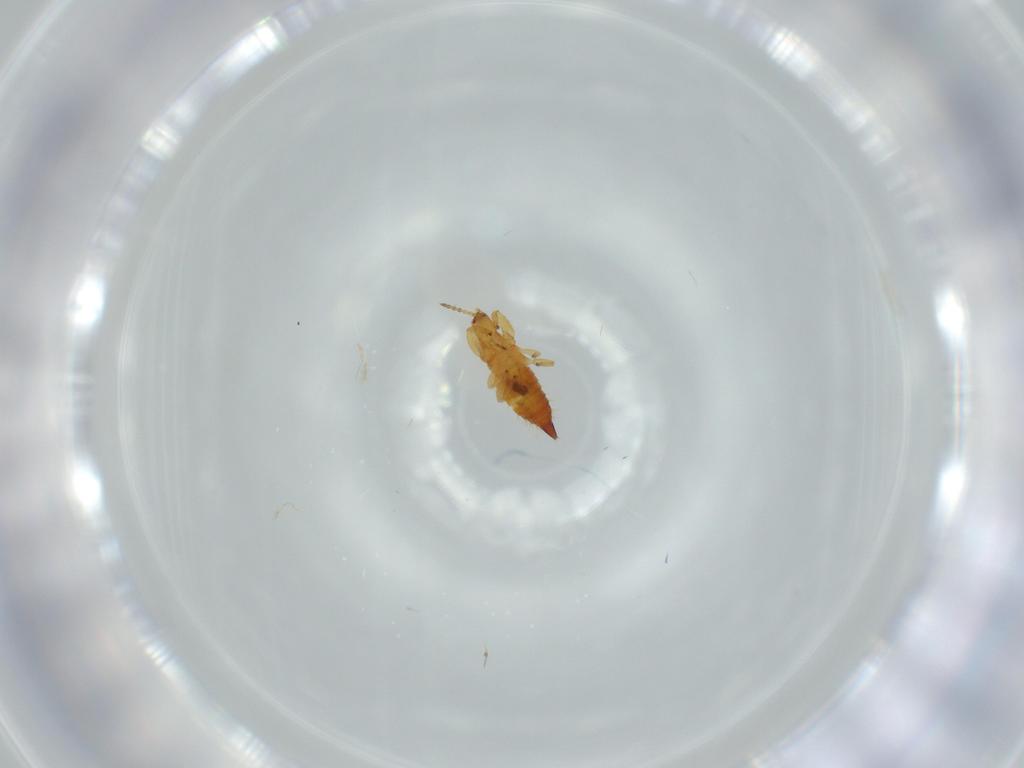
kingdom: Animalia
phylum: Arthropoda
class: Insecta
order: Thysanoptera
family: Phlaeothripidae
